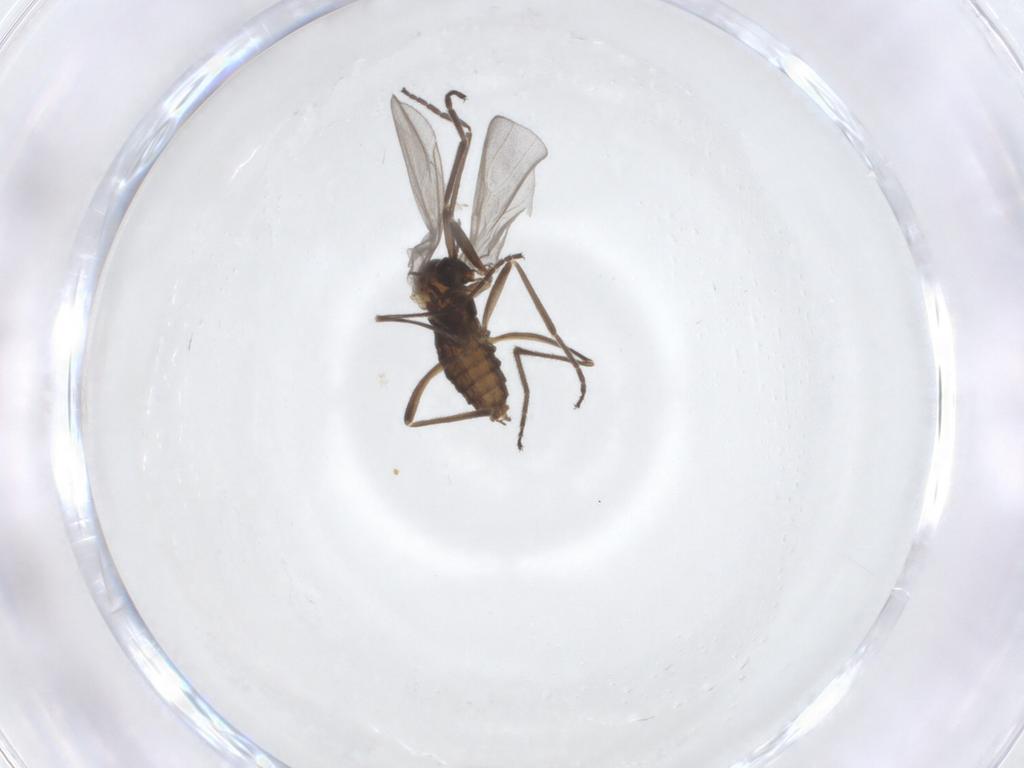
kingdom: Animalia
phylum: Arthropoda
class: Insecta
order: Diptera
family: Cecidomyiidae
